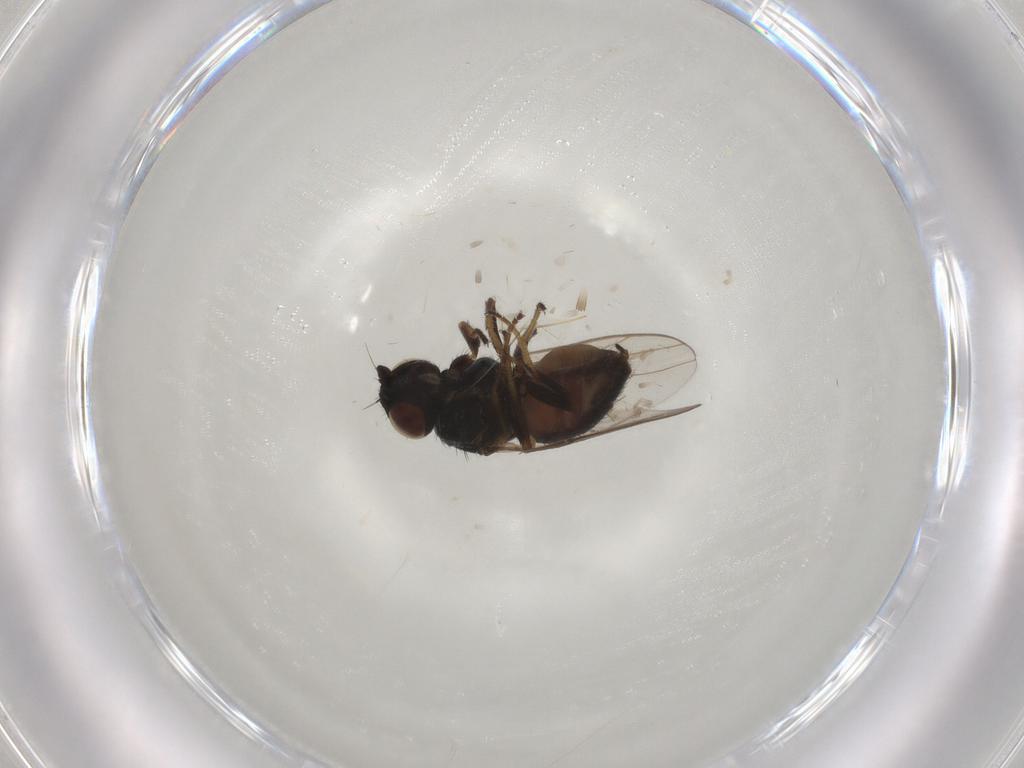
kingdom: Animalia
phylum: Arthropoda
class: Insecta
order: Diptera
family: Chloropidae
